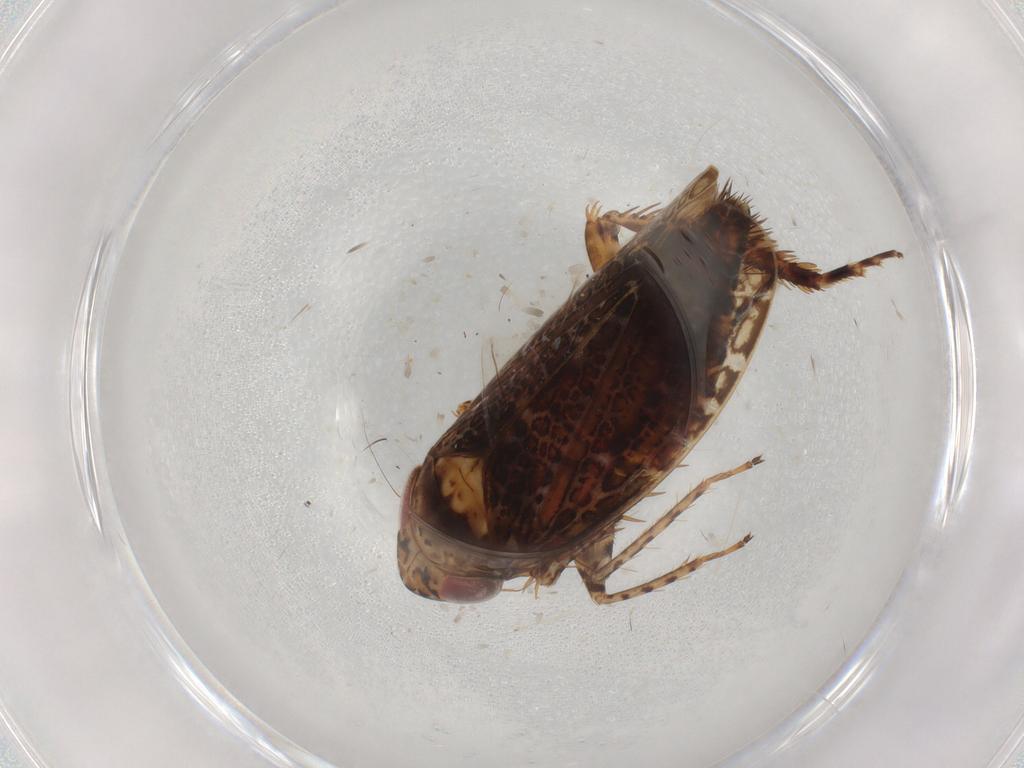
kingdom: Animalia
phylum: Arthropoda
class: Insecta
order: Hemiptera
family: Cicadellidae
